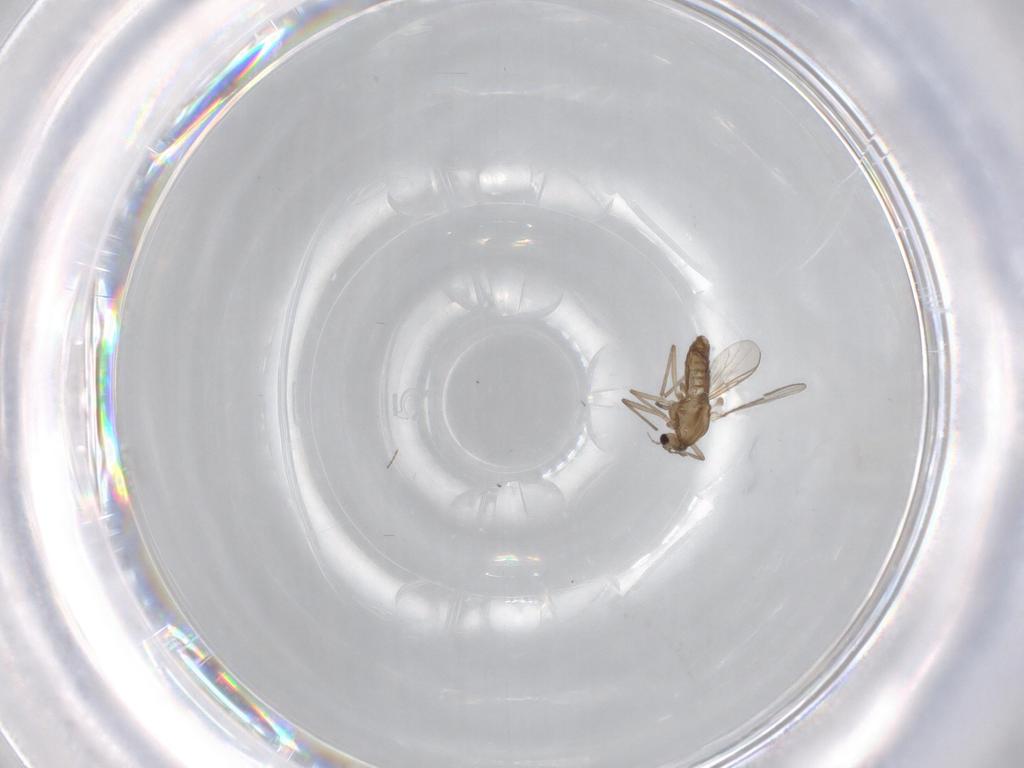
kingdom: Animalia
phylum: Arthropoda
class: Insecta
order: Diptera
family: Chironomidae
